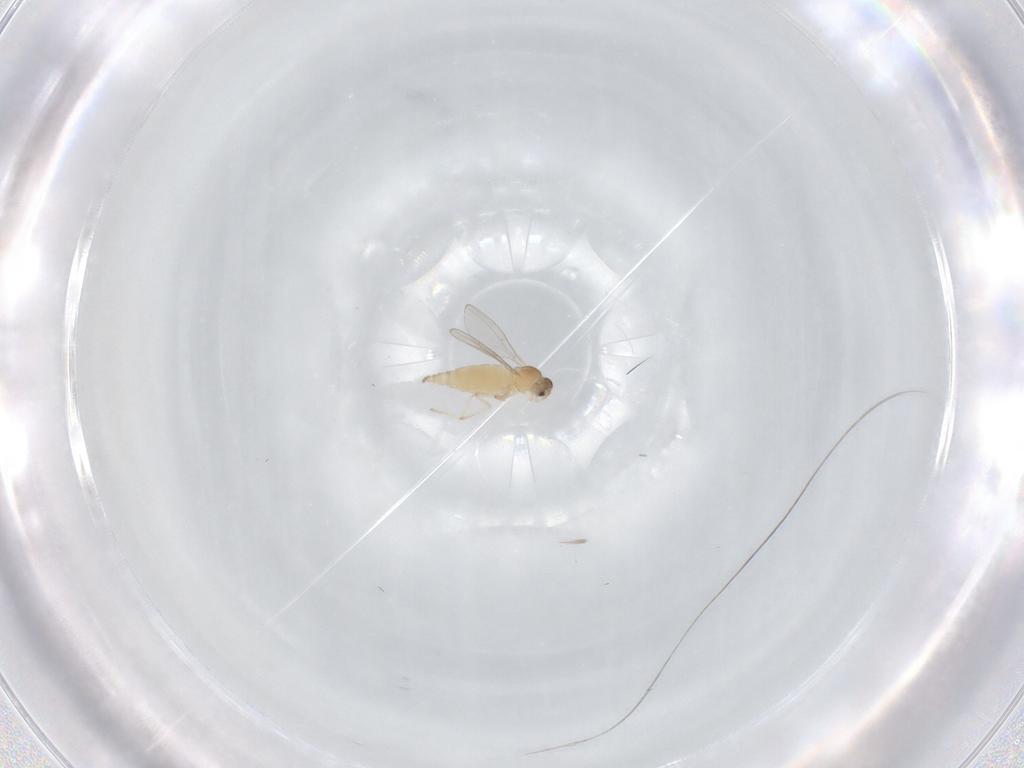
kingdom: Animalia
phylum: Arthropoda
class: Insecta
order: Diptera
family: Cecidomyiidae
